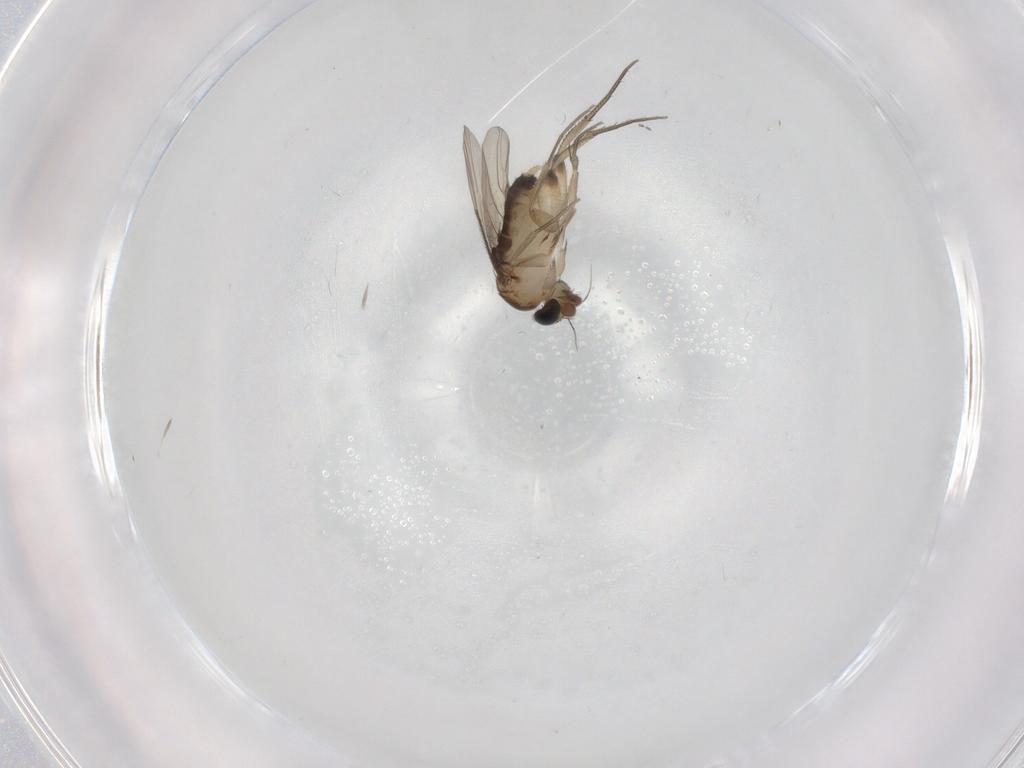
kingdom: Animalia
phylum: Arthropoda
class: Insecta
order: Diptera
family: Phoridae
